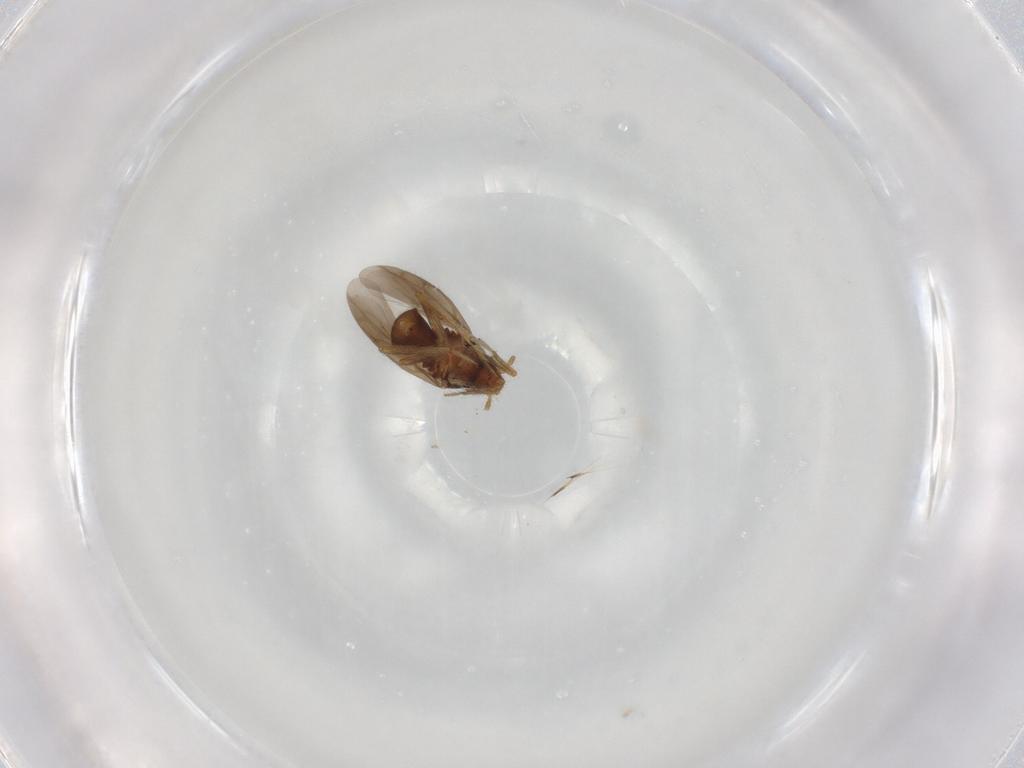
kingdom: Animalia
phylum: Arthropoda
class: Insecta
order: Hemiptera
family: Ceratocombidae
